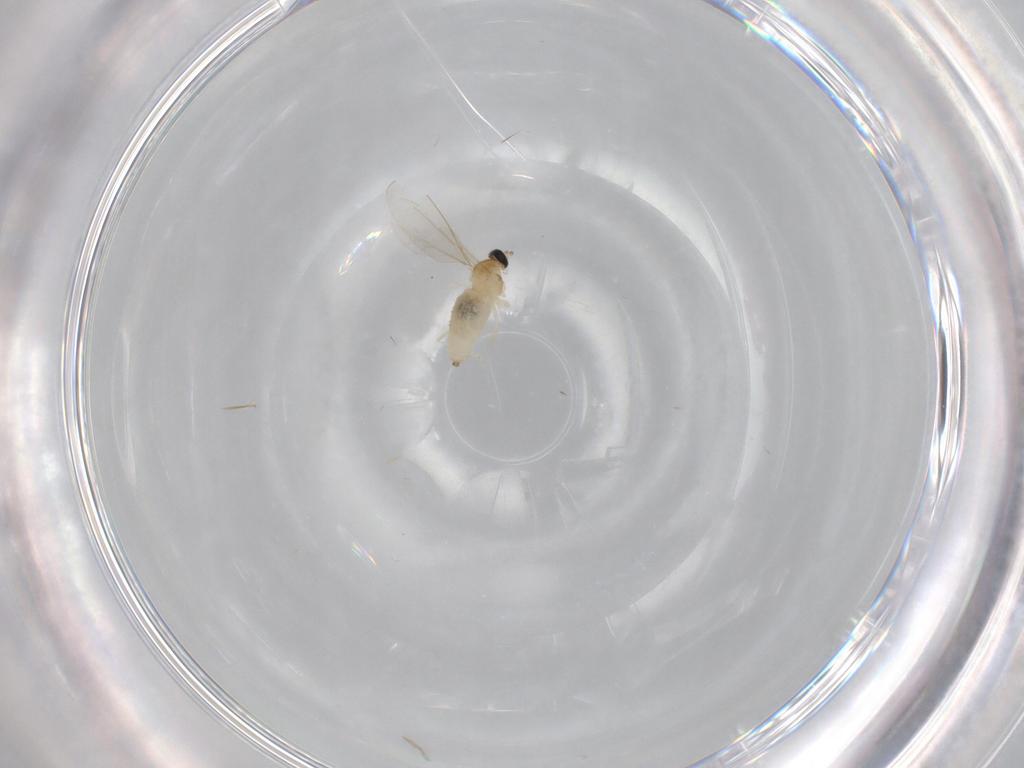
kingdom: Animalia
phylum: Arthropoda
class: Insecta
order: Diptera
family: Cecidomyiidae
